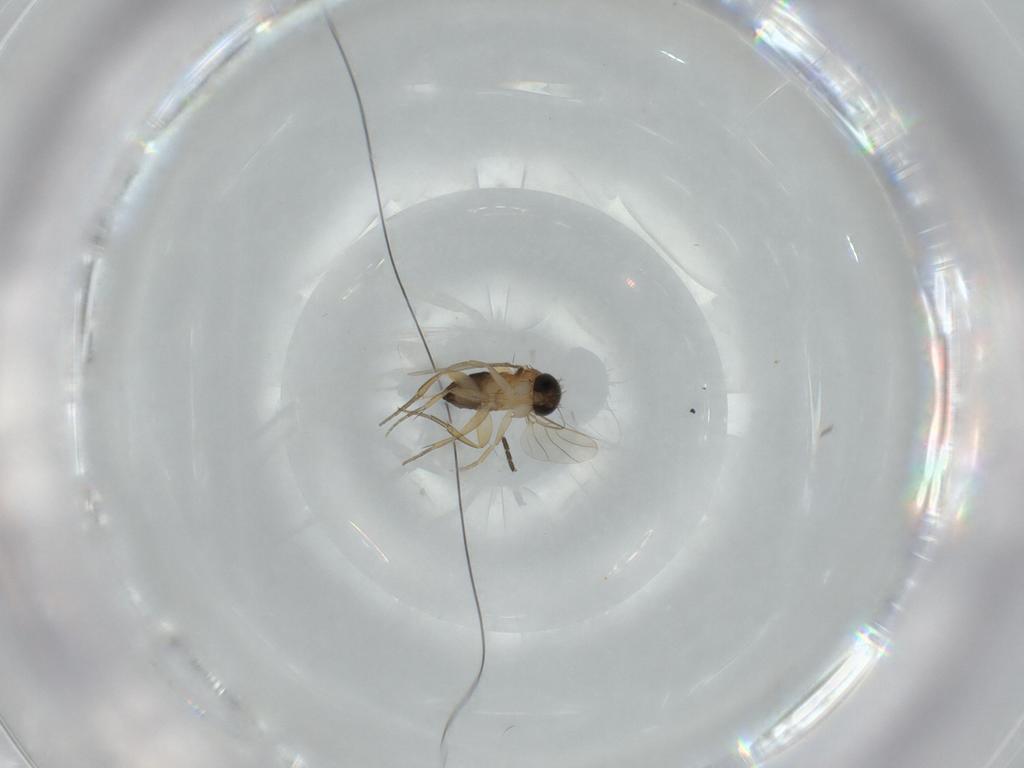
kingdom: Animalia
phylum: Arthropoda
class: Insecta
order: Diptera
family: Phoridae
